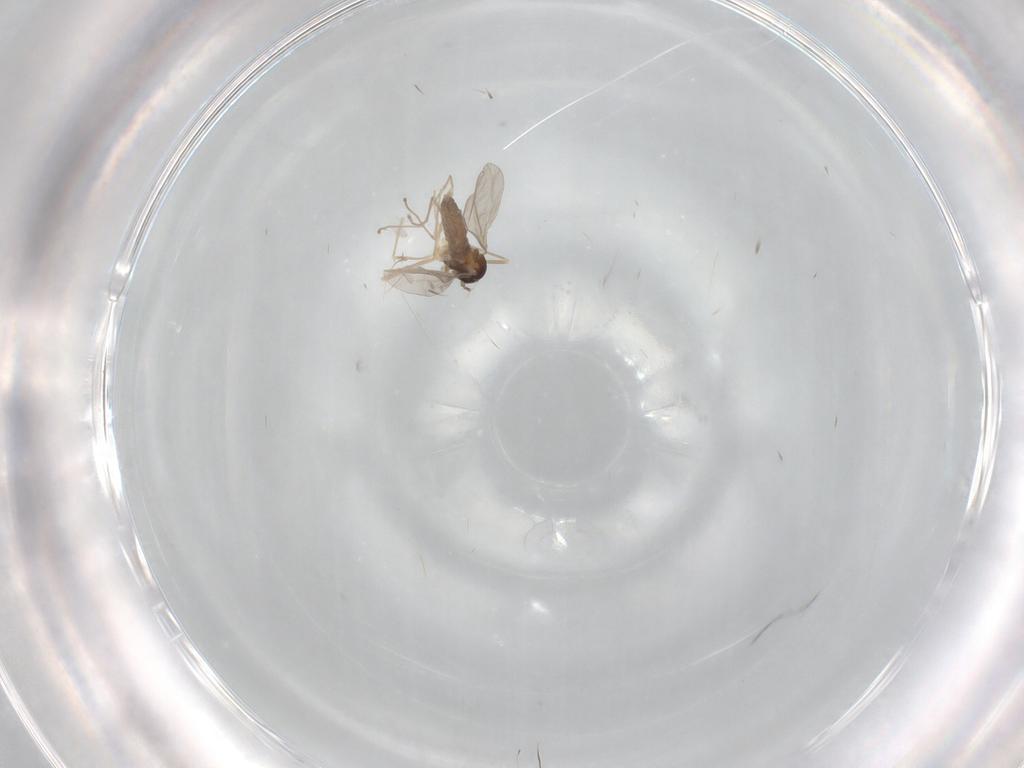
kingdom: Animalia
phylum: Arthropoda
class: Insecta
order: Diptera
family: Cecidomyiidae
